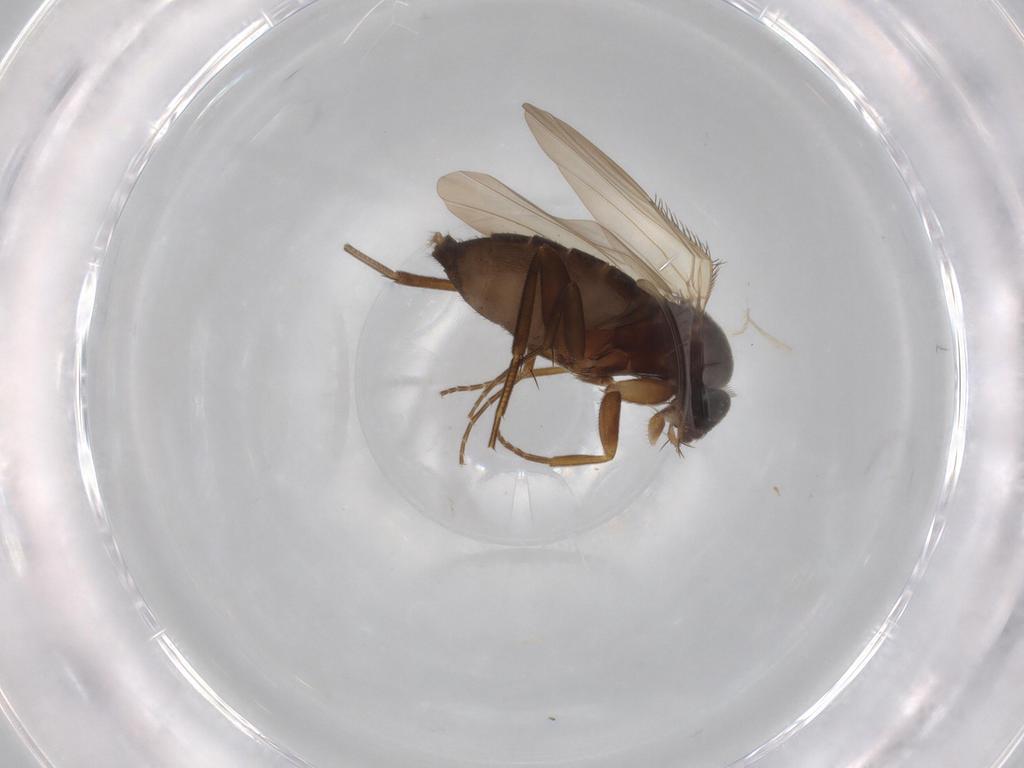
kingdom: Animalia
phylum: Arthropoda
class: Insecta
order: Diptera
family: Phoridae
